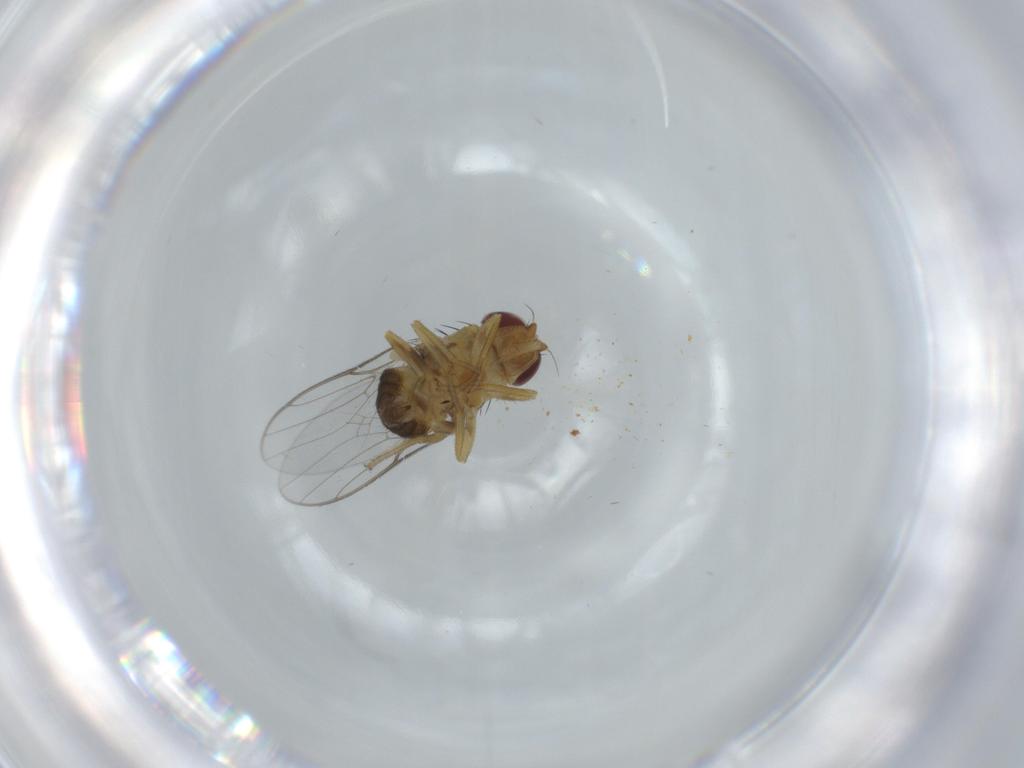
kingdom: Animalia
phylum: Arthropoda
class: Insecta
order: Diptera
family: Chloropidae
